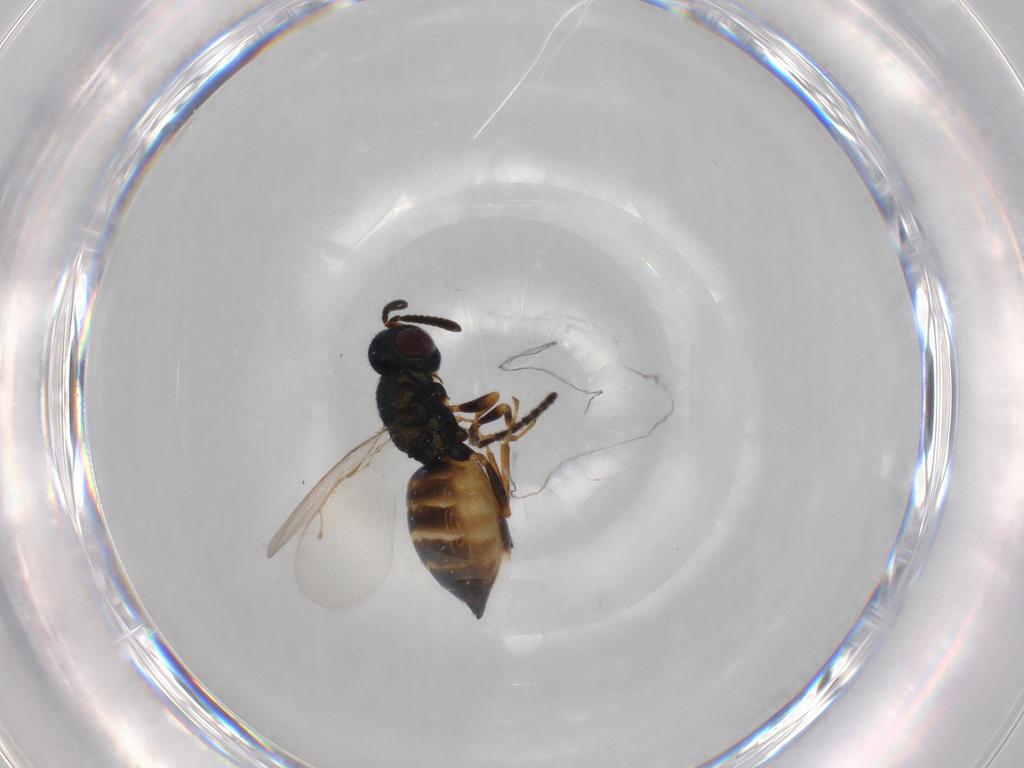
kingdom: Animalia
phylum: Arthropoda
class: Insecta
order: Hymenoptera
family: Pteromalidae
